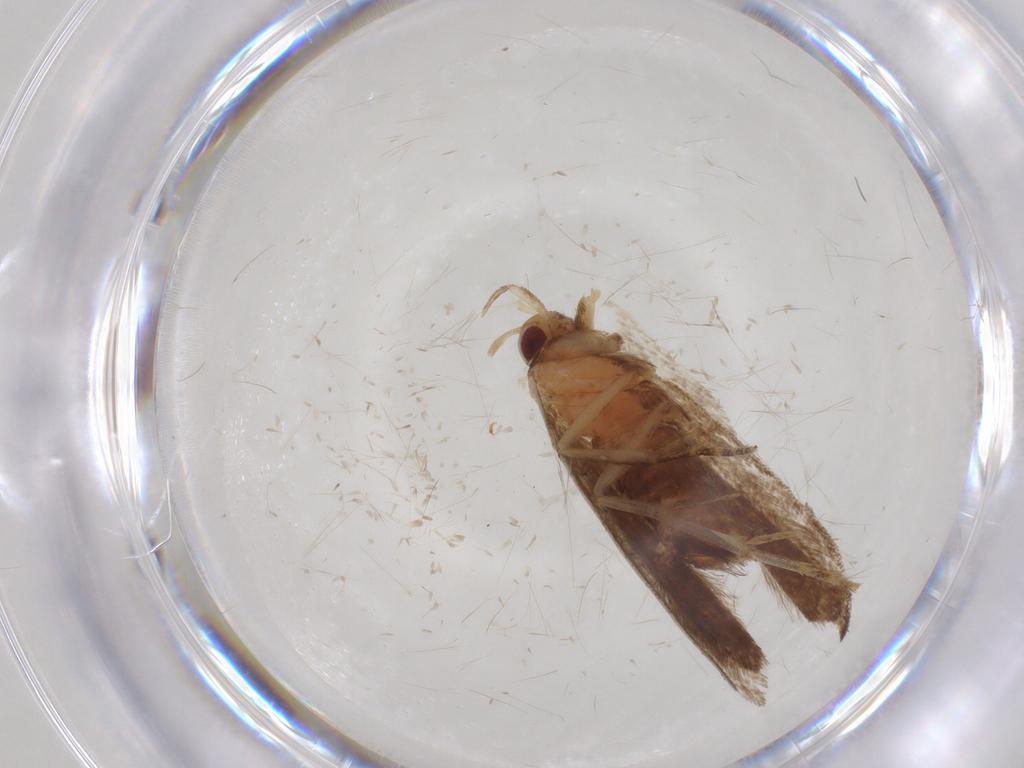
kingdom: Animalia
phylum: Arthropoda
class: Insecta
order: Lepidoptera
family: Gelechiidae
